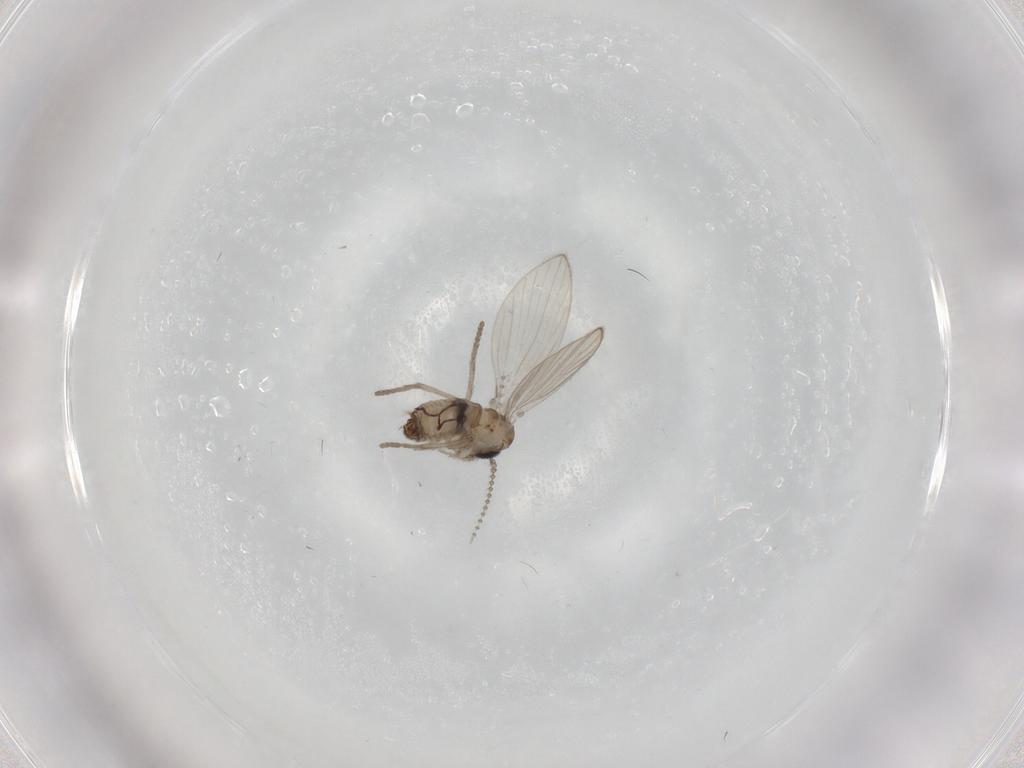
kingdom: Animalia
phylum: Arthropoda
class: Insecta
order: Diptera
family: Psychodidae
